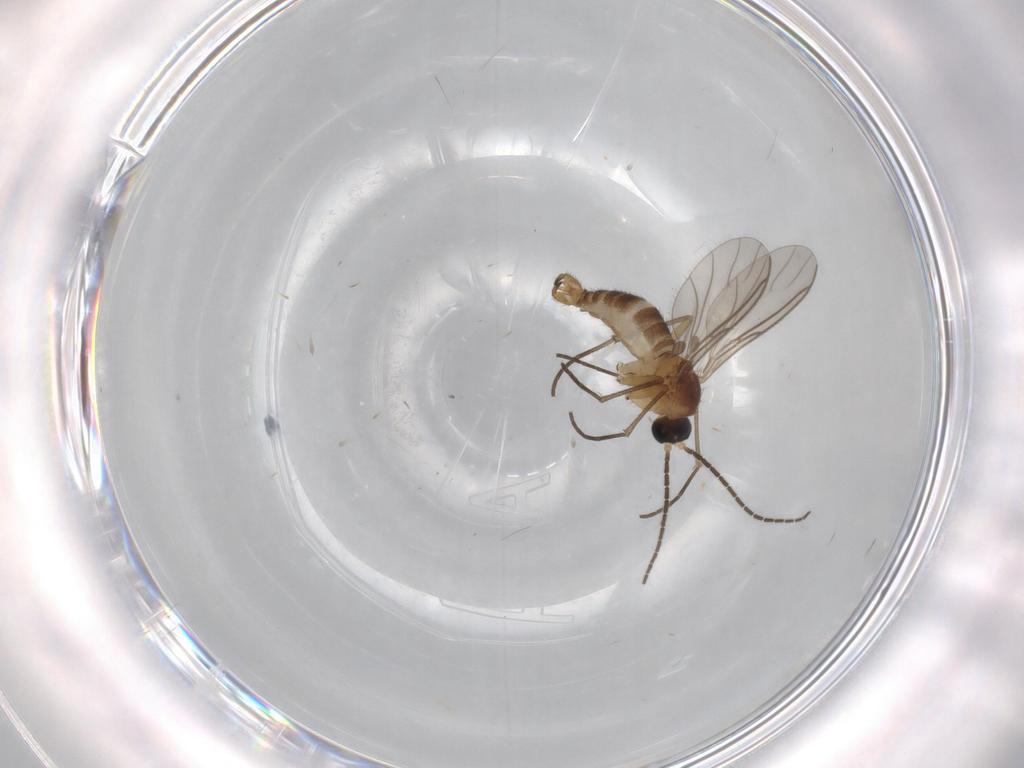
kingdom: Animalia
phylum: Arthropoda
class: Insecta
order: Diptera
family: Sciaridae
